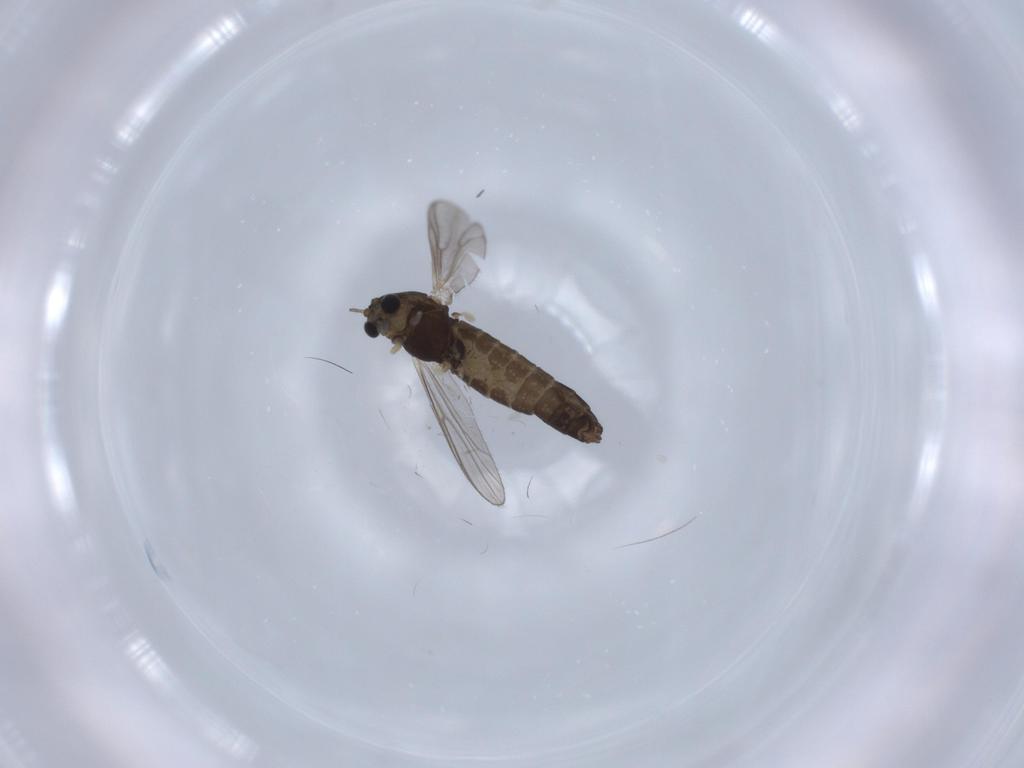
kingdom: Animalia
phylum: Arthropoda
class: Insecta
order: Diptera
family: Chironomidae
